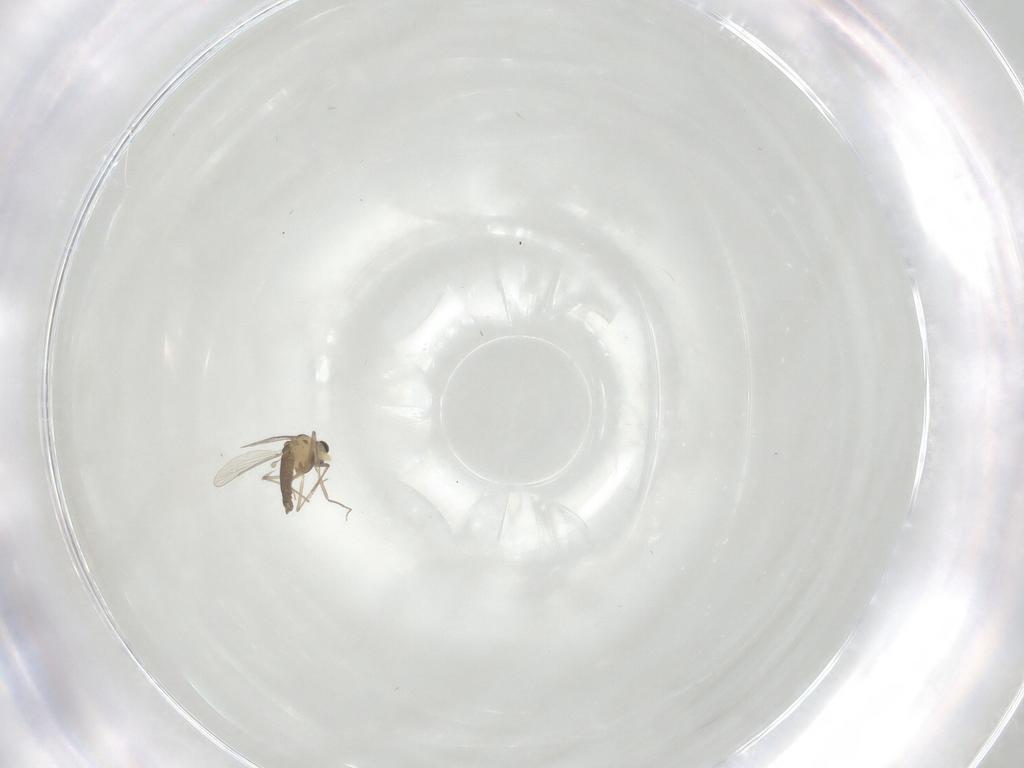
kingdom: Animalia
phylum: Arthropoda
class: Insecta
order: Diptera
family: Chironomidae
